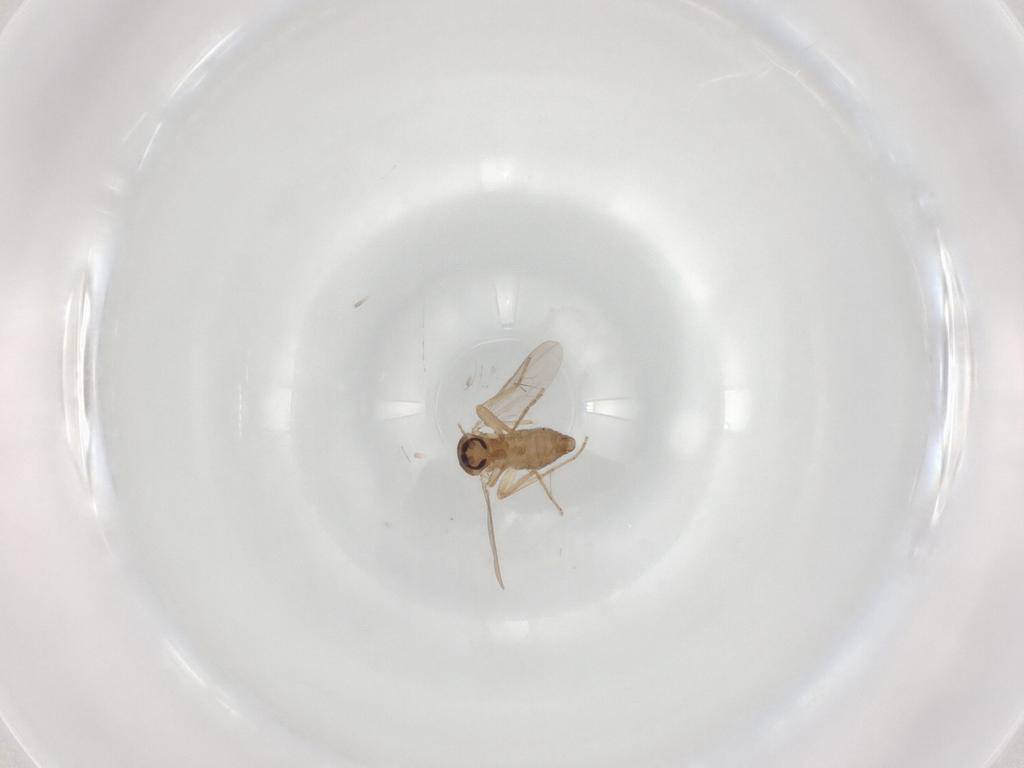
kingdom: Animalia
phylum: Arthropoda
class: Insecta
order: Diptera
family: Ceratopogonidae
